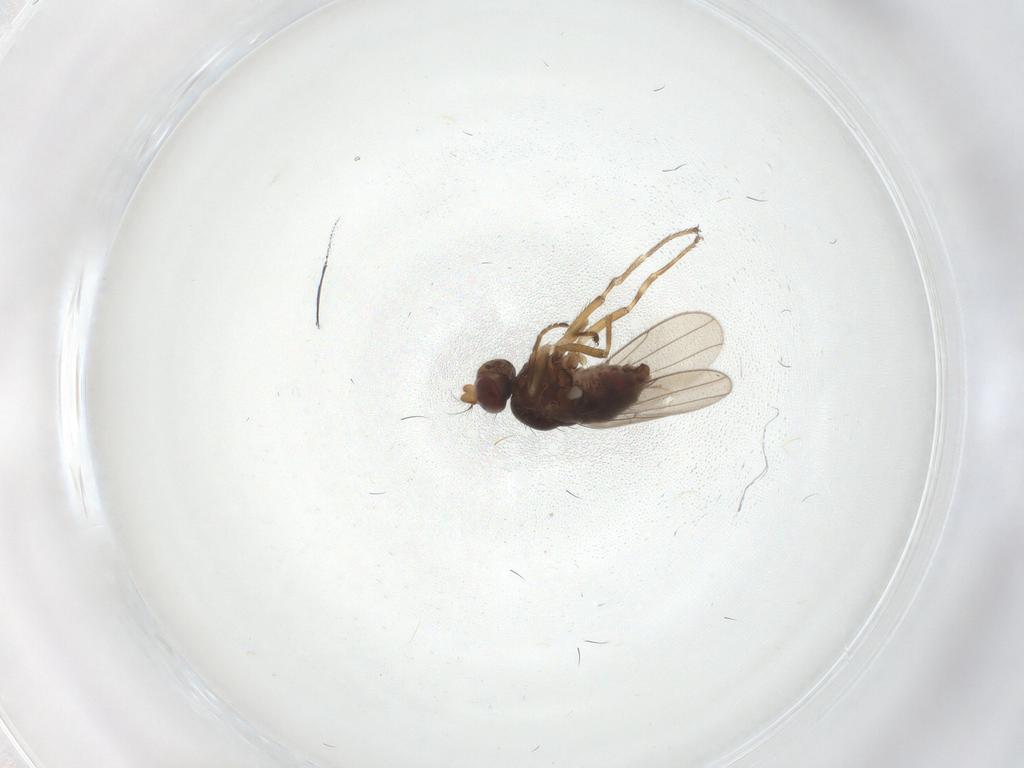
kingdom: Animalia
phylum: Arthropoda
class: Insecta
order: Diptera
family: Ephydridae
